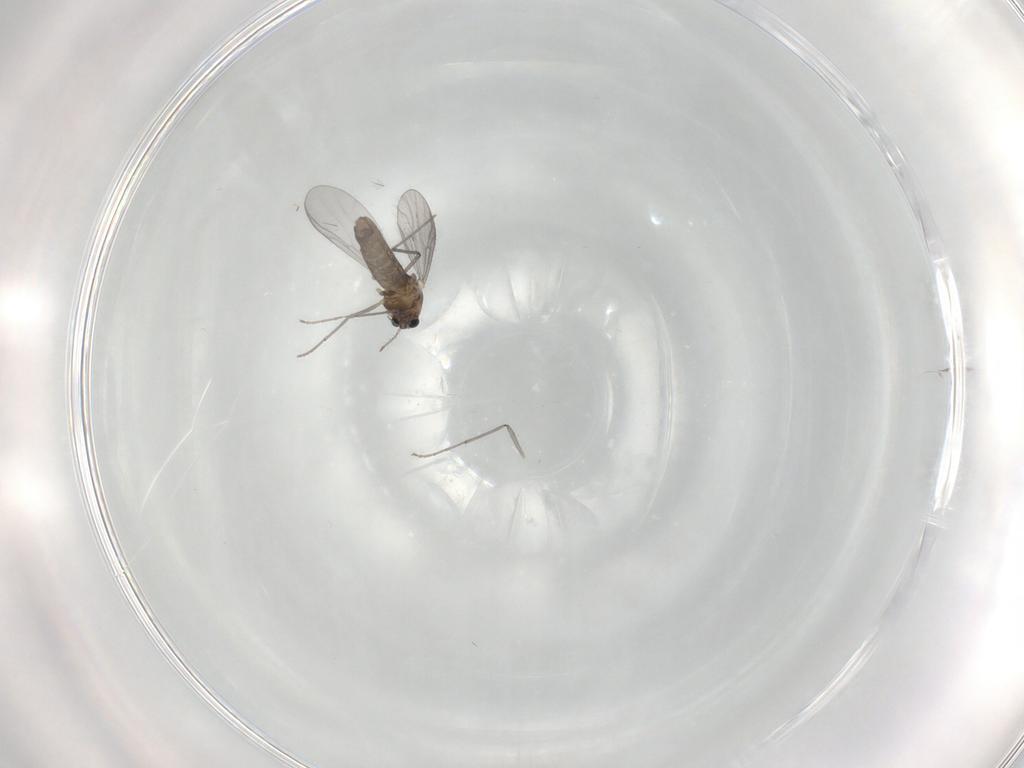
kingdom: Animalia
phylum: Arthropoda
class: Insecta
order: Diptera
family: Chironomidae
